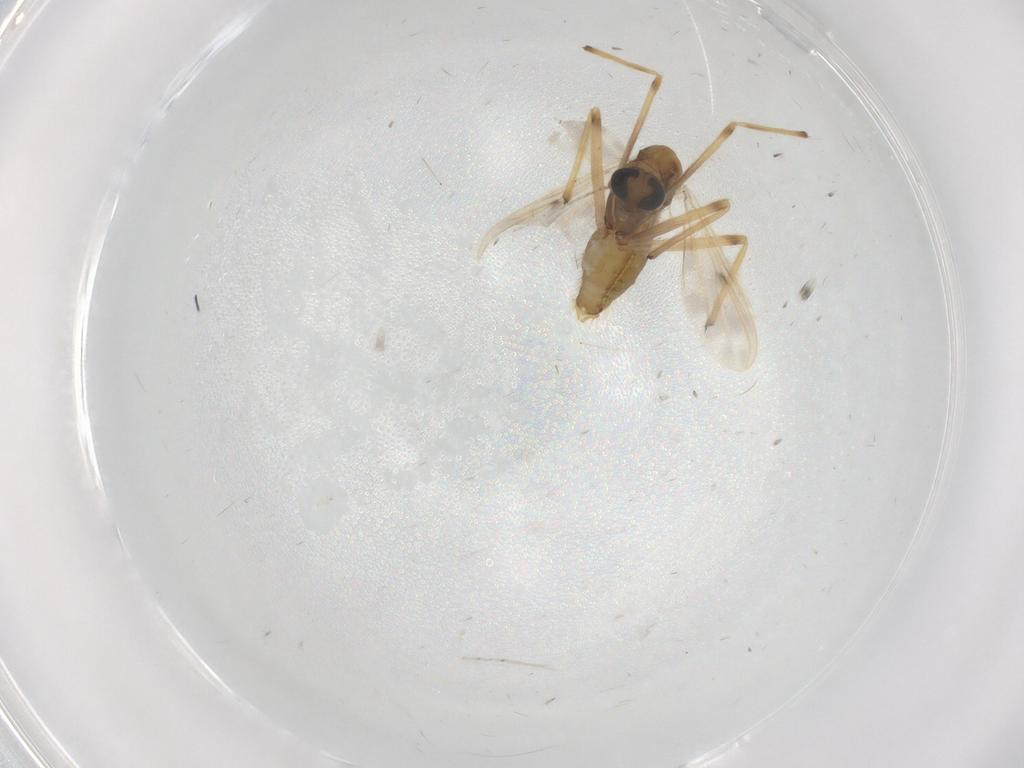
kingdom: Animalia
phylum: Arthropoda
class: Insecta
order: Diptera
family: Chironomidae
